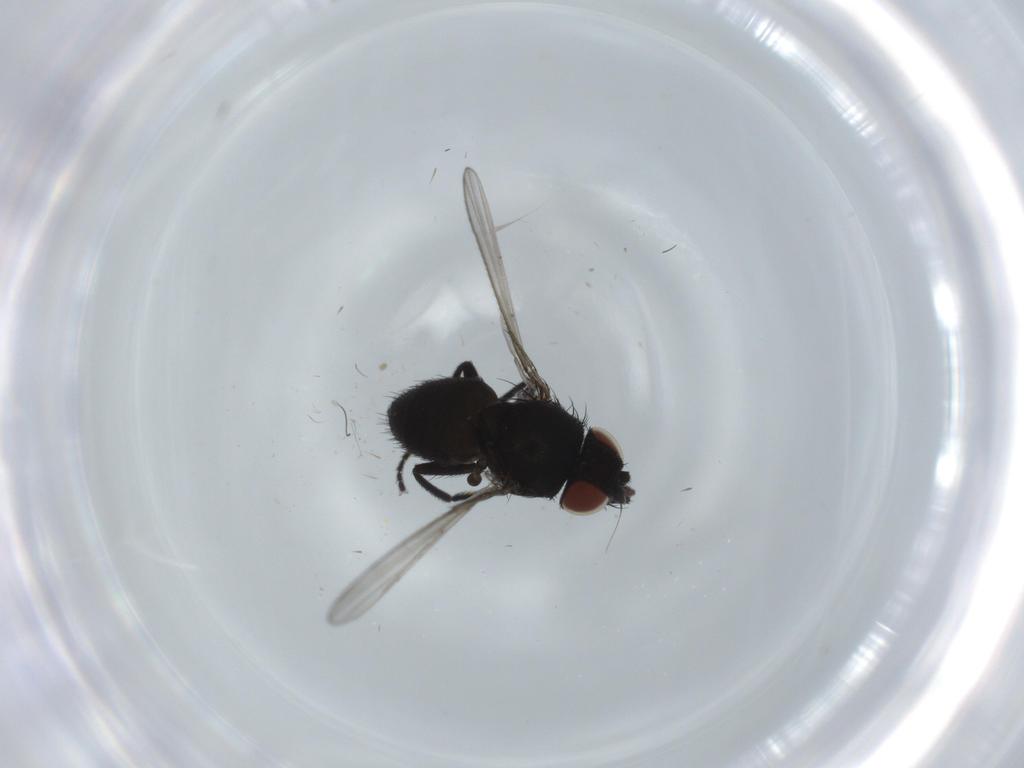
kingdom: Animalia
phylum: Arthropoda
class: Insecta
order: Diptera
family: Milichiidae
